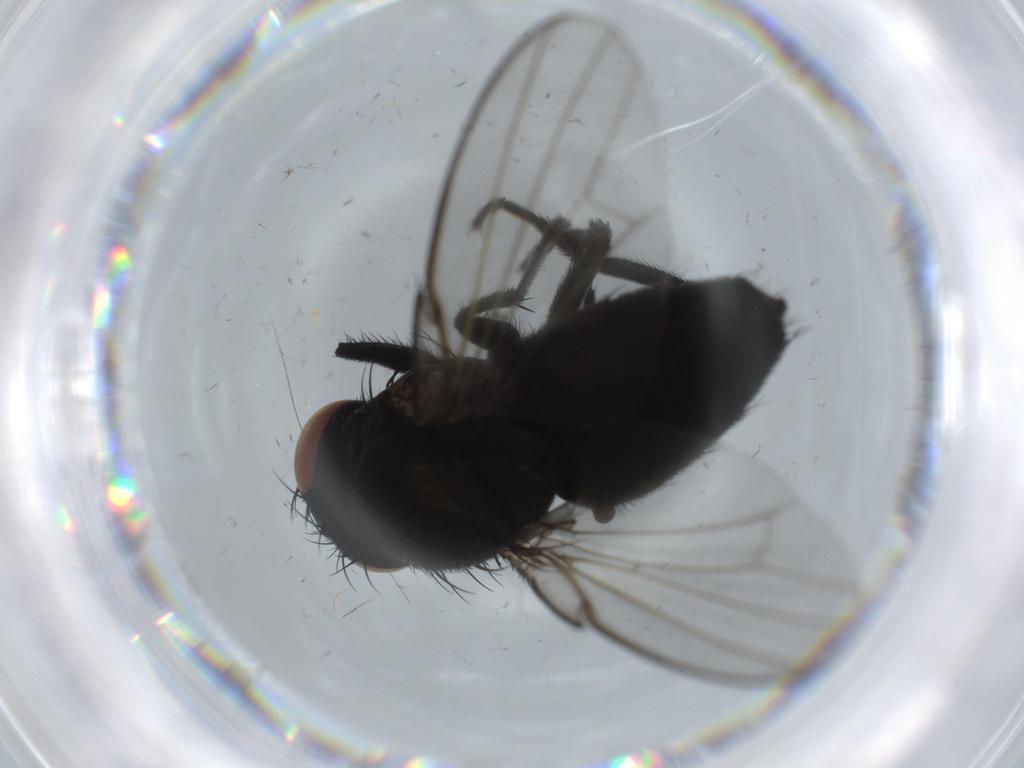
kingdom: Animalia
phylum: Arthropoda
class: Insecta
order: Diptera
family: Milichiidae
